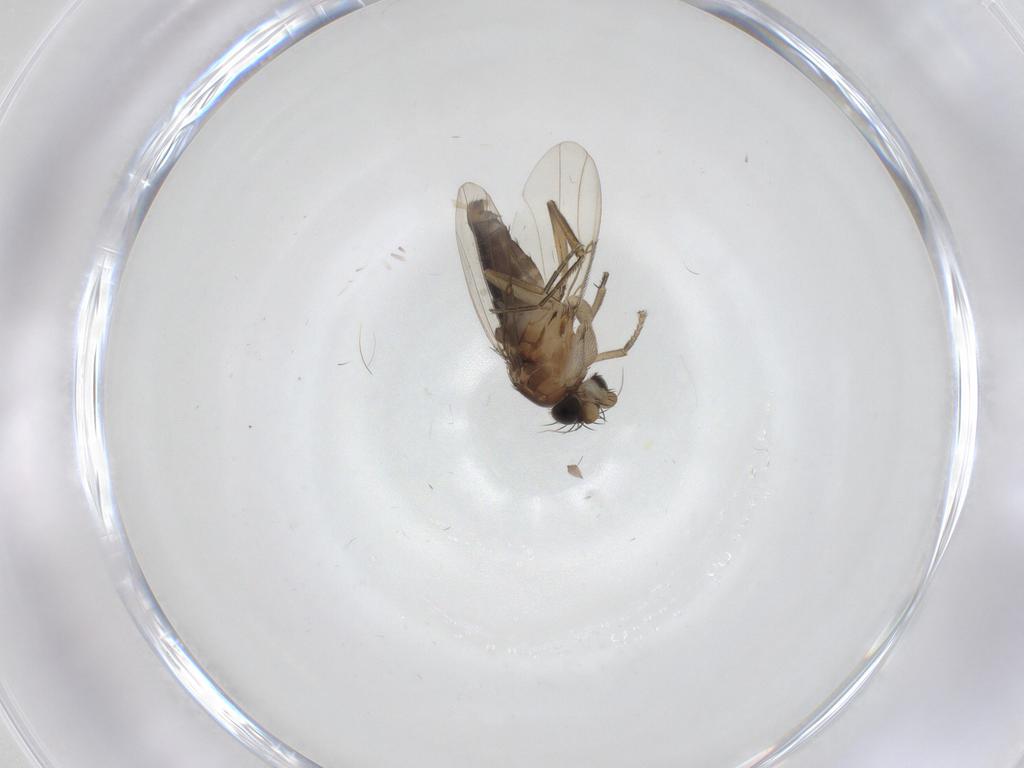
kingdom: Animalia
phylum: Arthropoda
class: Insecta
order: Diptera
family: Phoridae
